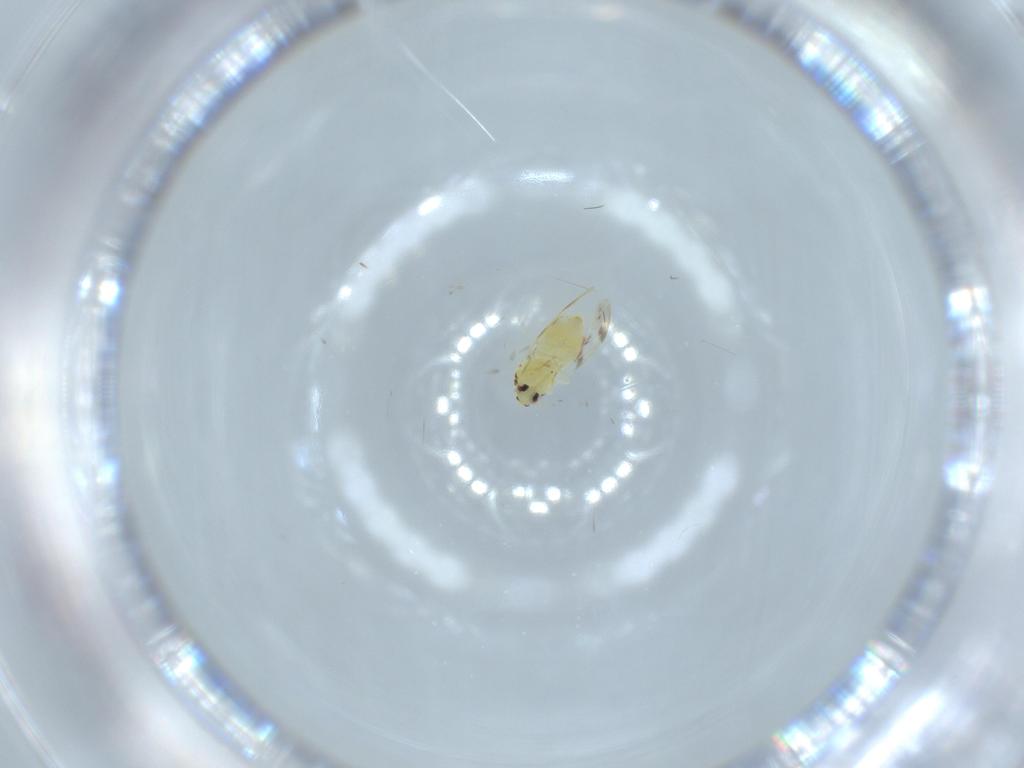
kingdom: Animalia
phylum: Arthropoda
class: Insecta
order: Hemiptera
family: Aleyrodidae
